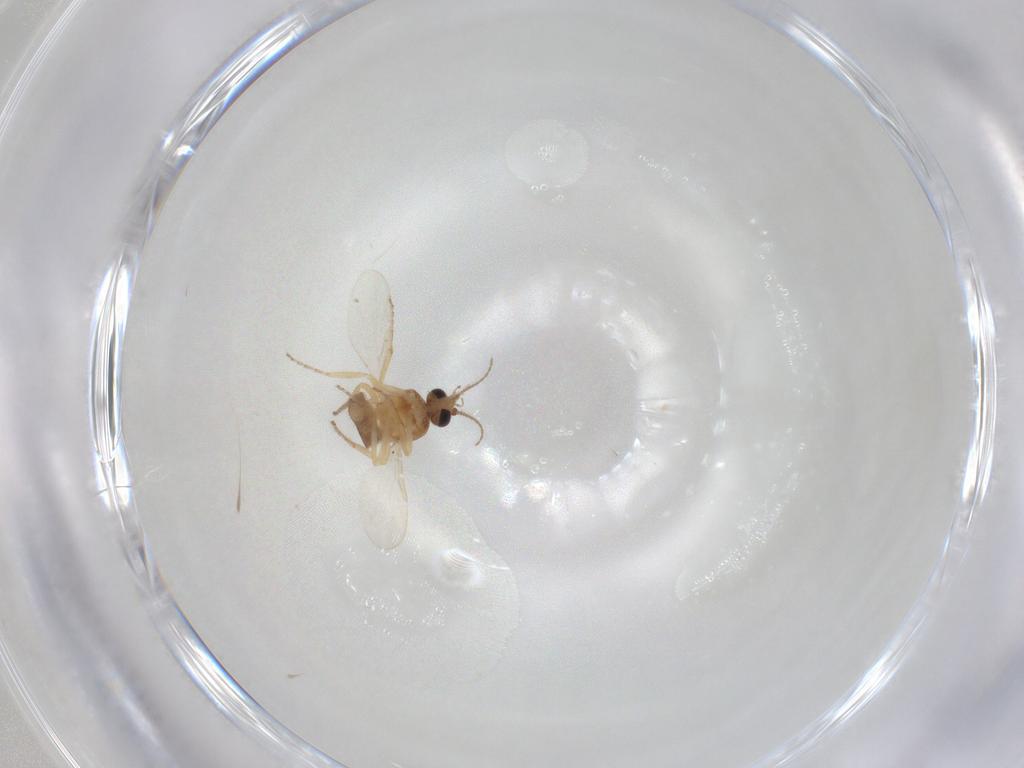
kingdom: Animalia
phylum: Arthropoda
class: Insecta
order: Diptera
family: Ceratopogonidae
